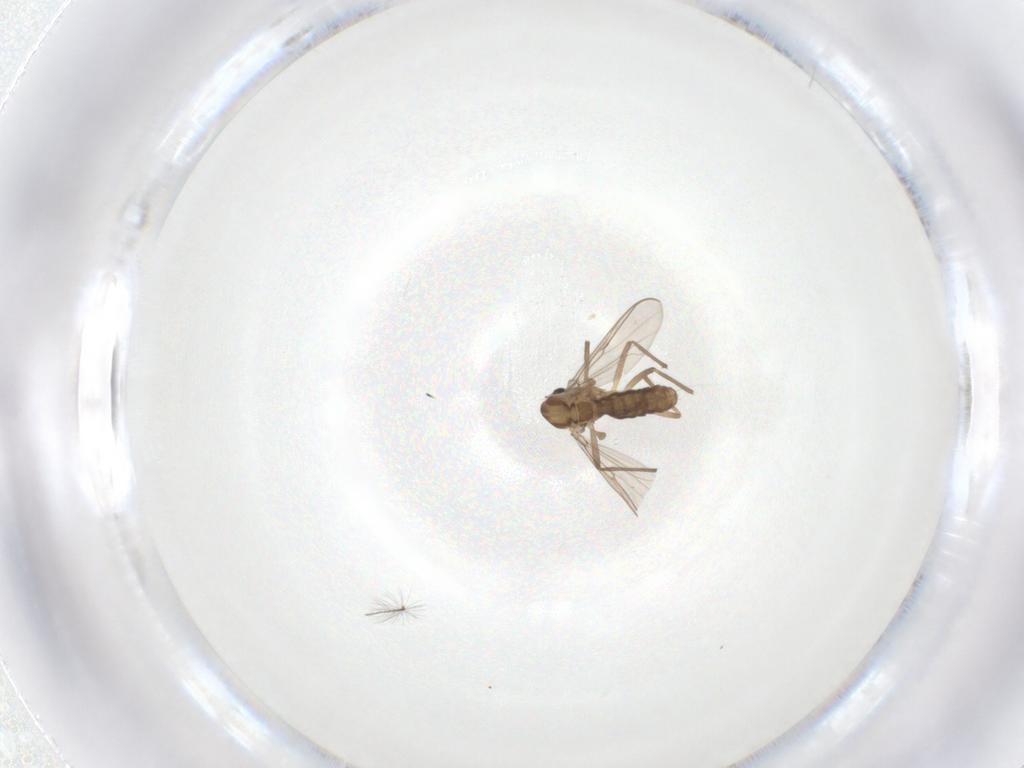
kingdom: Animalia
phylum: Arthropoda
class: Insecta
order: Diptera
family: Chironomidae
